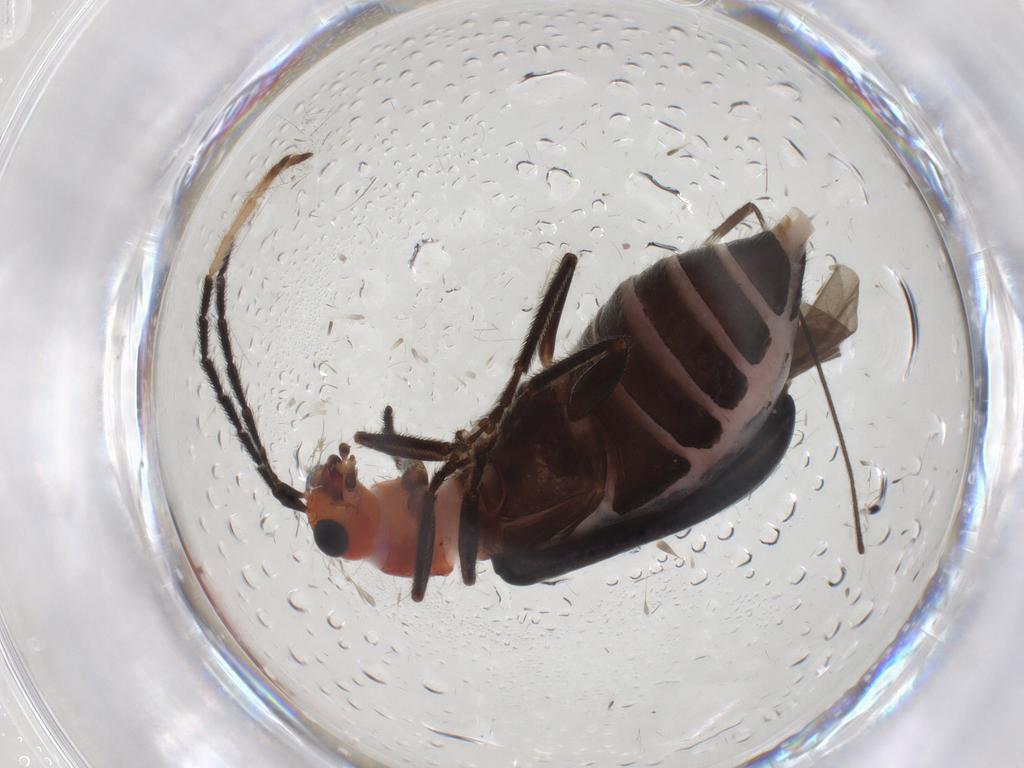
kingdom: Animalia
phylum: Arthropoda
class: Insecta
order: Coleoptera
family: Chrysomelidae
